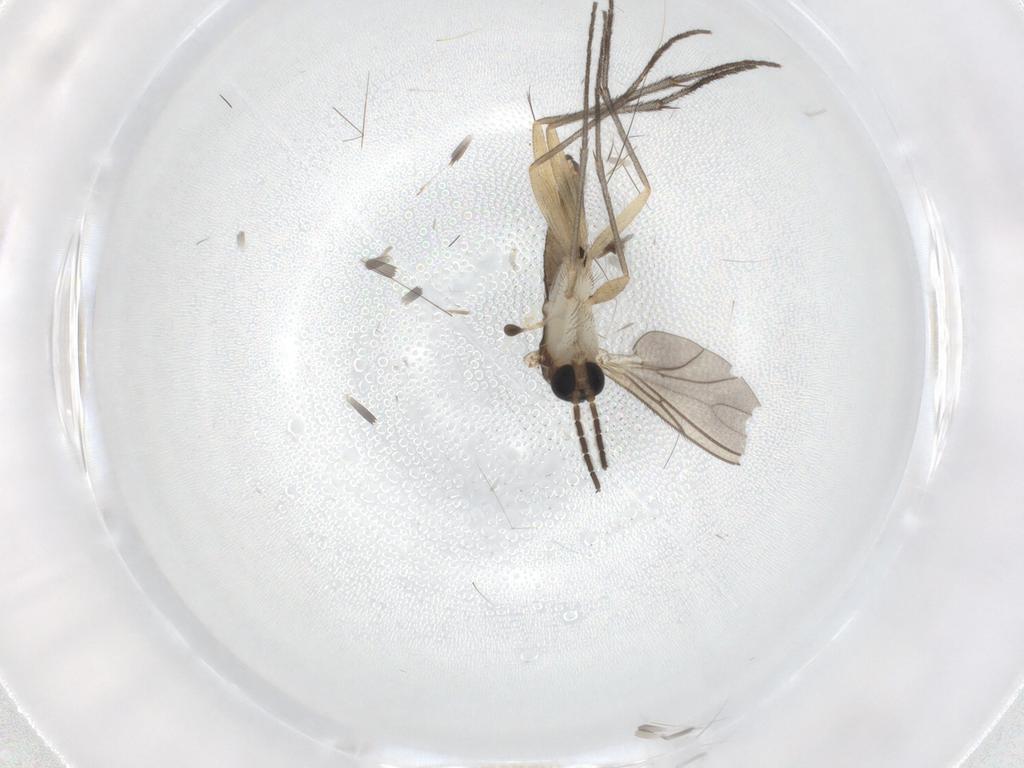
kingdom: Animalia
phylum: Arthropoda
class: Insecta
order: Diptera
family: Sciaridae
